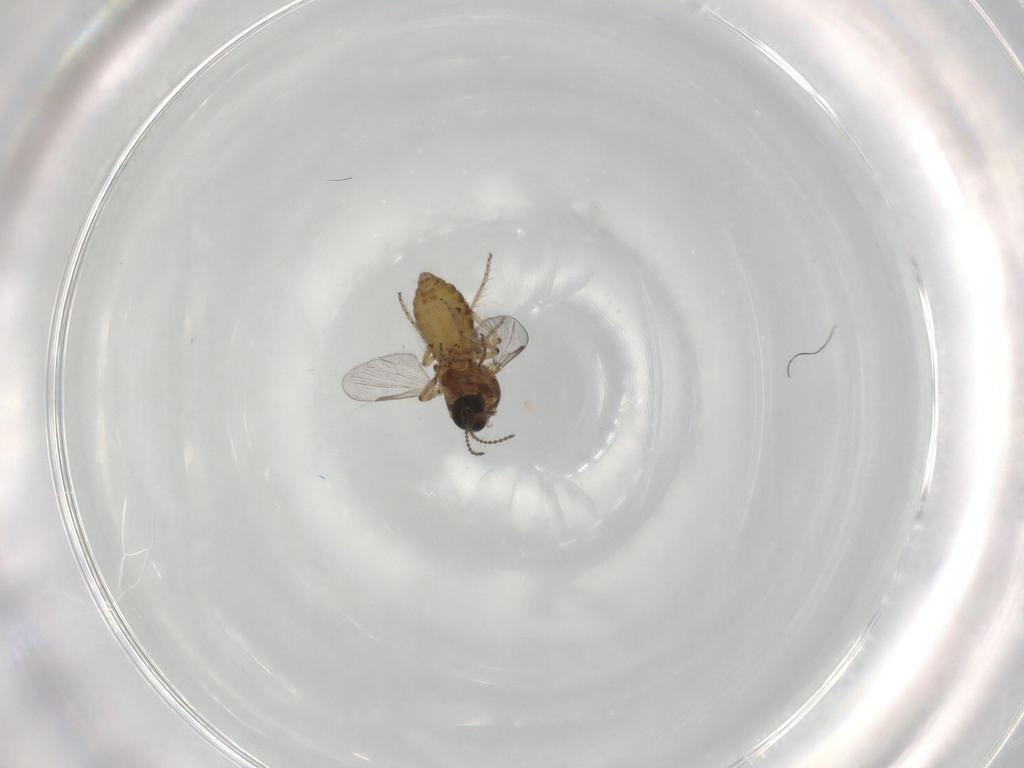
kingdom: Animalia
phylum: Arthropoda
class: Insecta
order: Diptera
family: Ceratopogonidae
